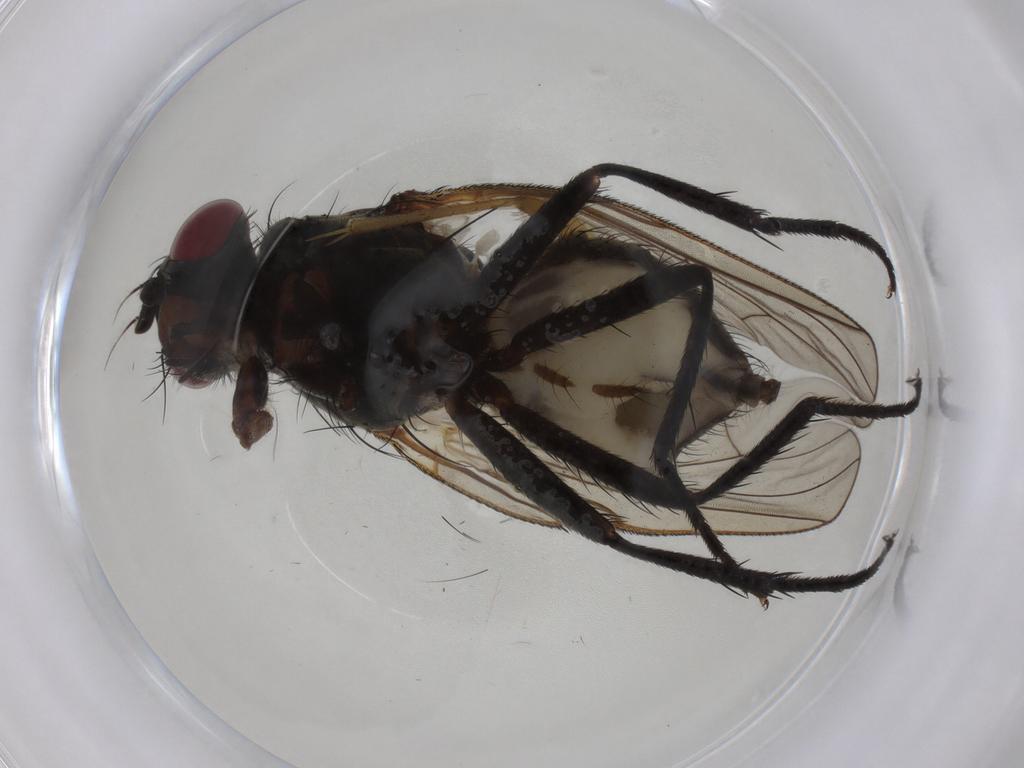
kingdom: Animalia
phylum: Arthropoda
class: Insecta
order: Diptera
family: Anthomyiidae
